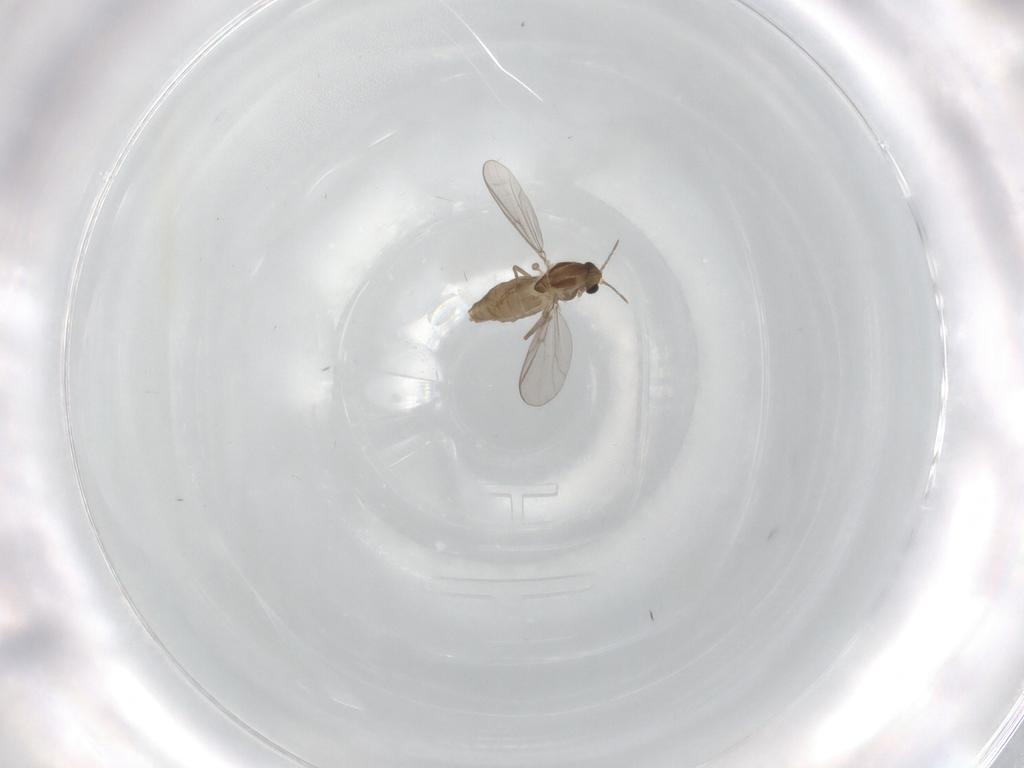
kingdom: Animalia
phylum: Arthropoda
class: Insecta
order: Diptera
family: Chironomidae
